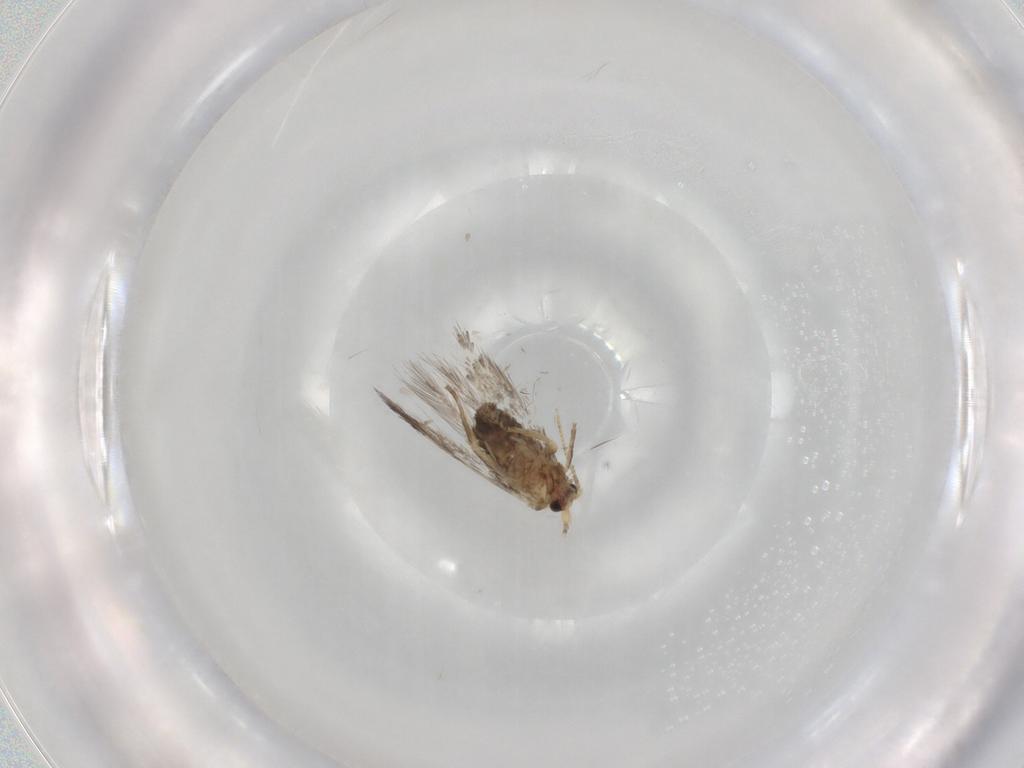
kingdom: Animalia
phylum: Arthropoda
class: Insecta
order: Lepidoptera
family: Nepticulidae
